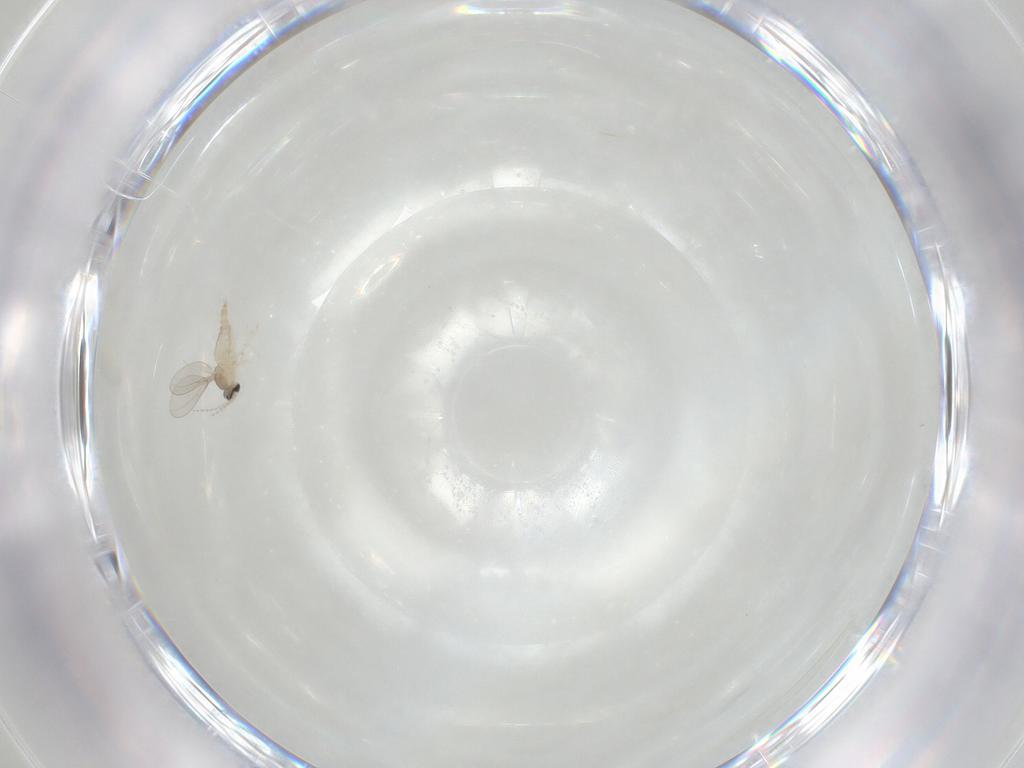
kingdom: Animalia
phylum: Arthropoda
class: Insecta
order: Diptera
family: Cecidomyiidae
